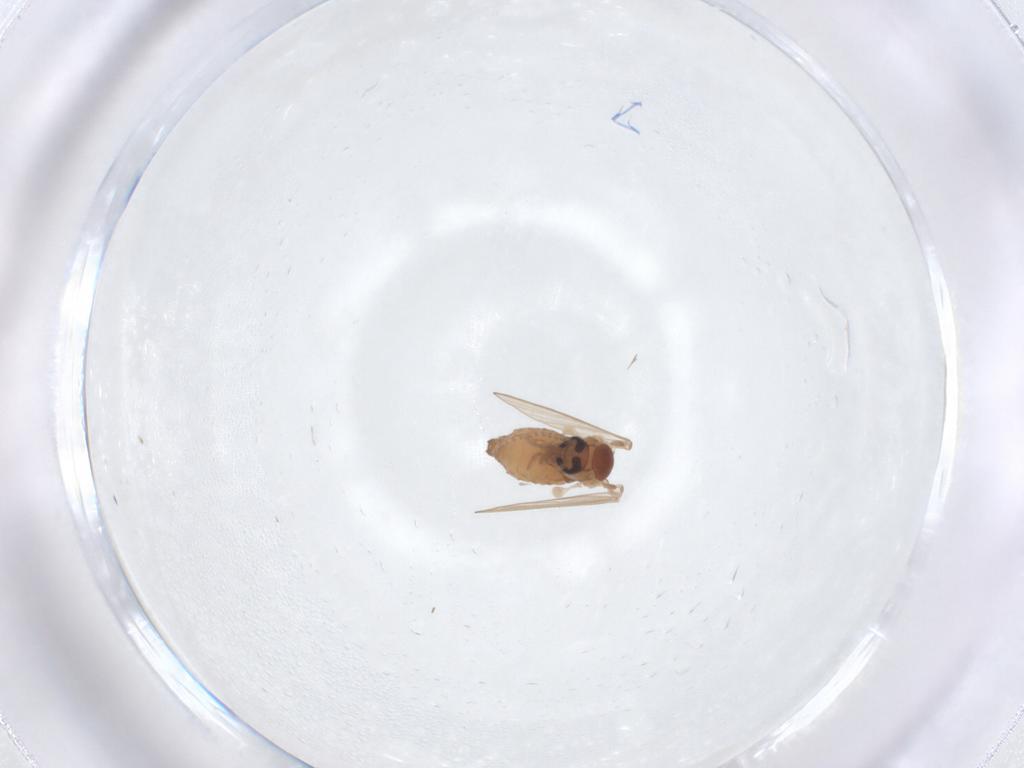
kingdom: Animalia
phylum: Arthropoda
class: Insecta
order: Diptera
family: Psychodidae
